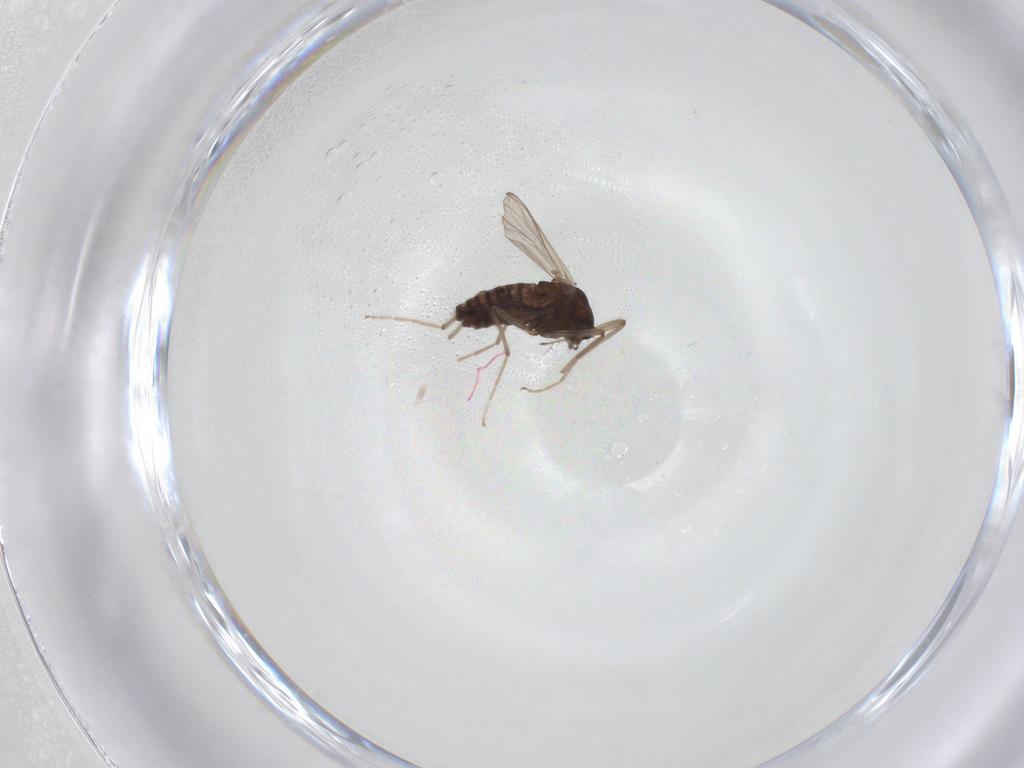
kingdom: Animalia
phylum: Arthropoda
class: Insecta
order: Diptera
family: Chironomidae
